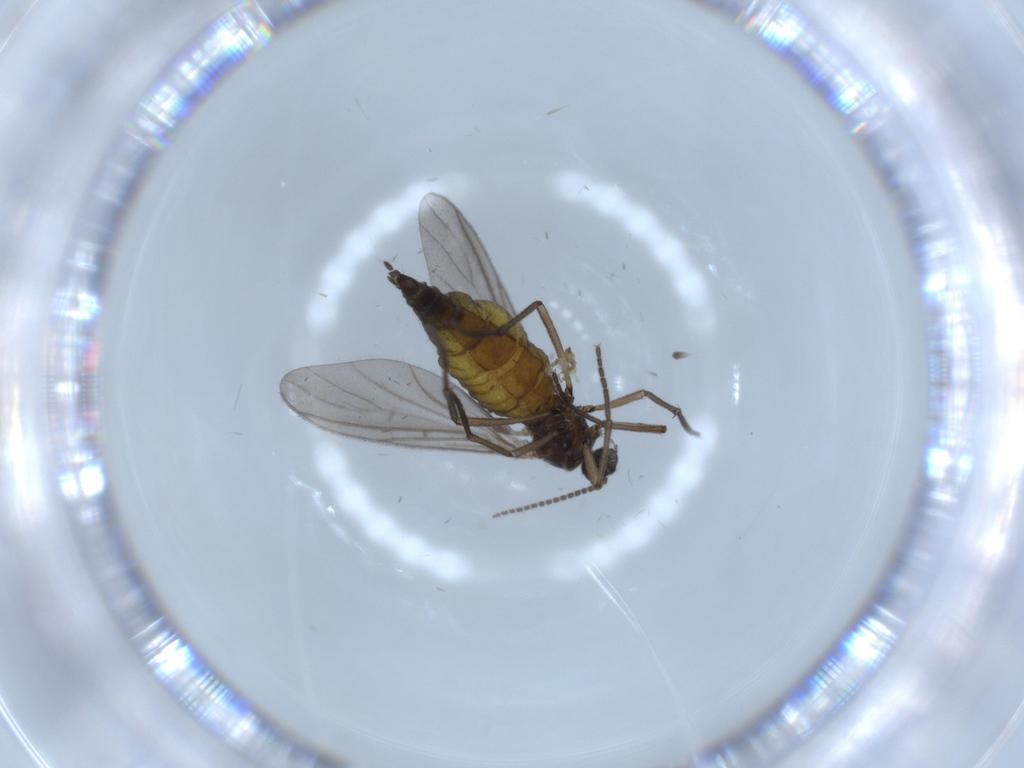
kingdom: Animalia
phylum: Arthropoda
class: Insecta
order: Diptera
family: Sciaridae
